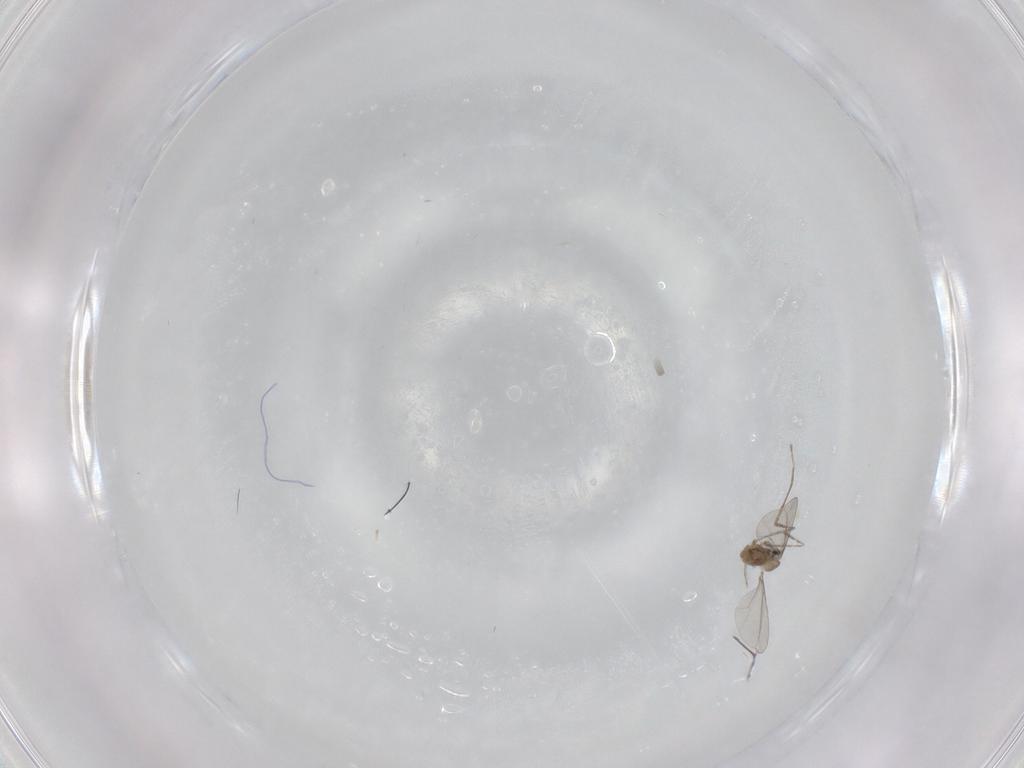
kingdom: Animalia
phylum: Arthropoda
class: Insecta
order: Diptera
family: Cecidomyiidae
